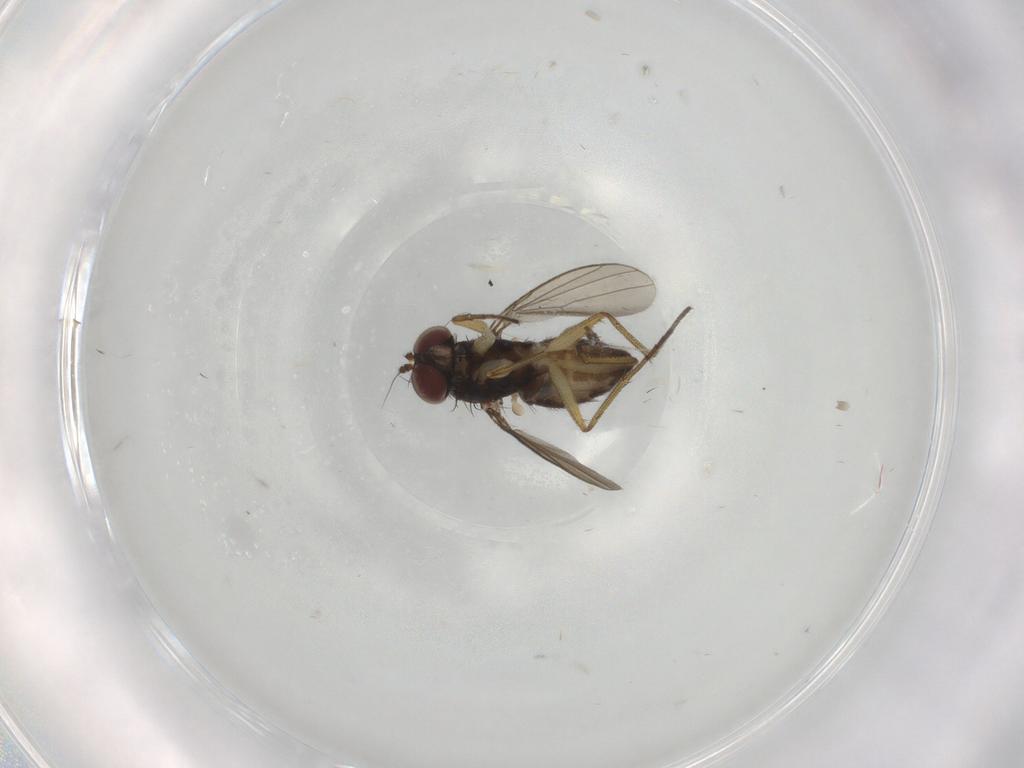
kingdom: Animalia
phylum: Arthropoda
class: Insecta
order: Diptera
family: Dolichopodidae
